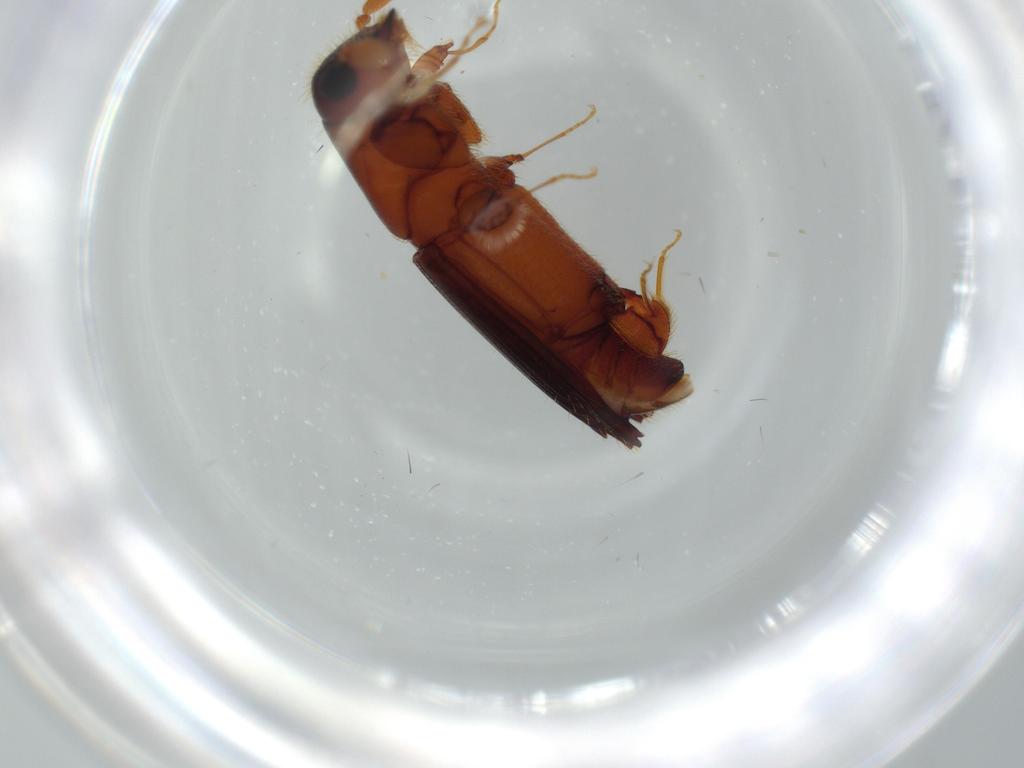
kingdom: Animalia
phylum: Arthropoda
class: Insecta
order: Coleoptera
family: Curculionidae
